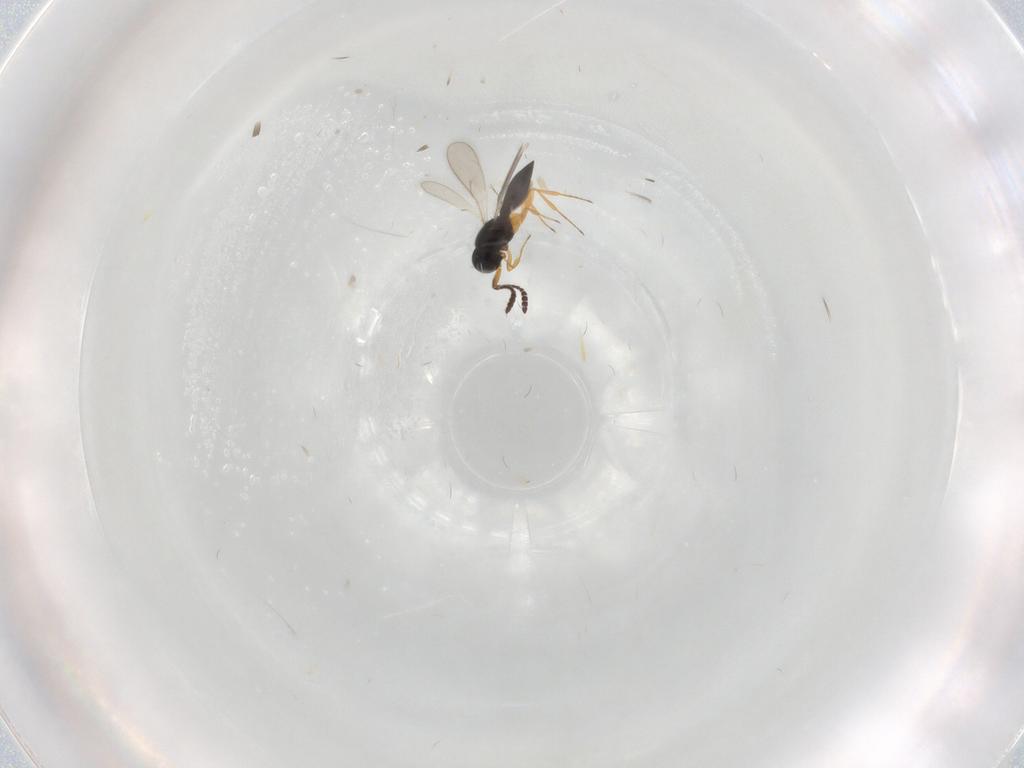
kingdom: Animalia
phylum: Arthropoda
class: Insecta
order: Hymenoptera
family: Scelionidae
